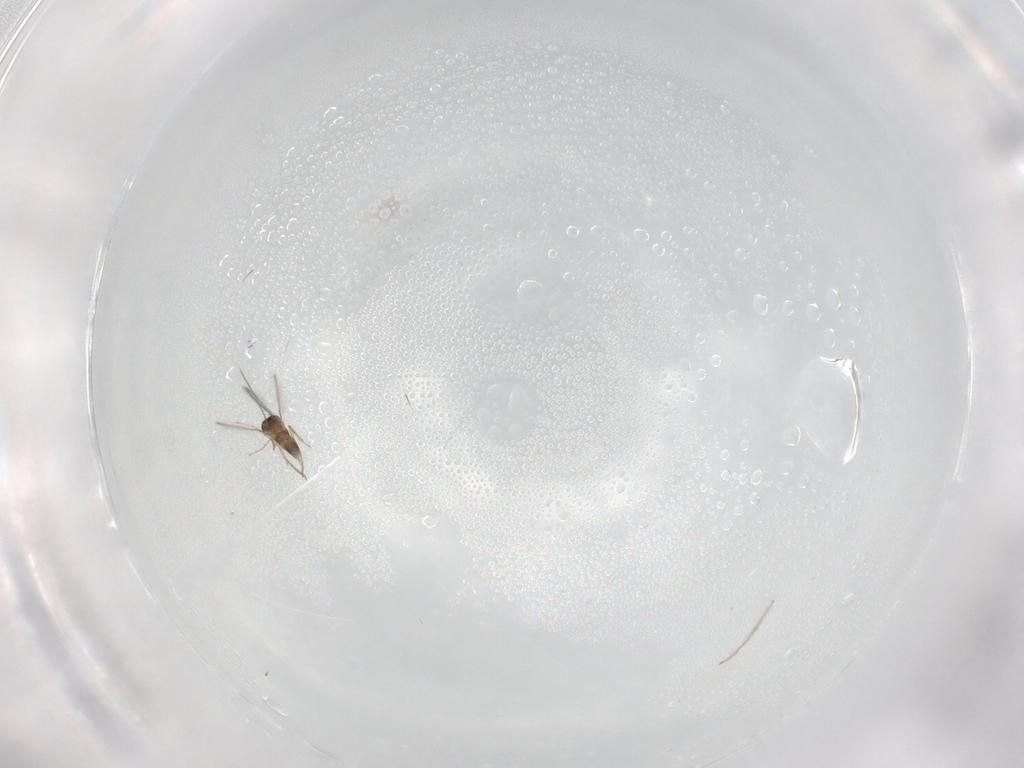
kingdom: Animalia
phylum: Arthropoda
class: Insecta
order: Hymenoptera
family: Mymaridae
